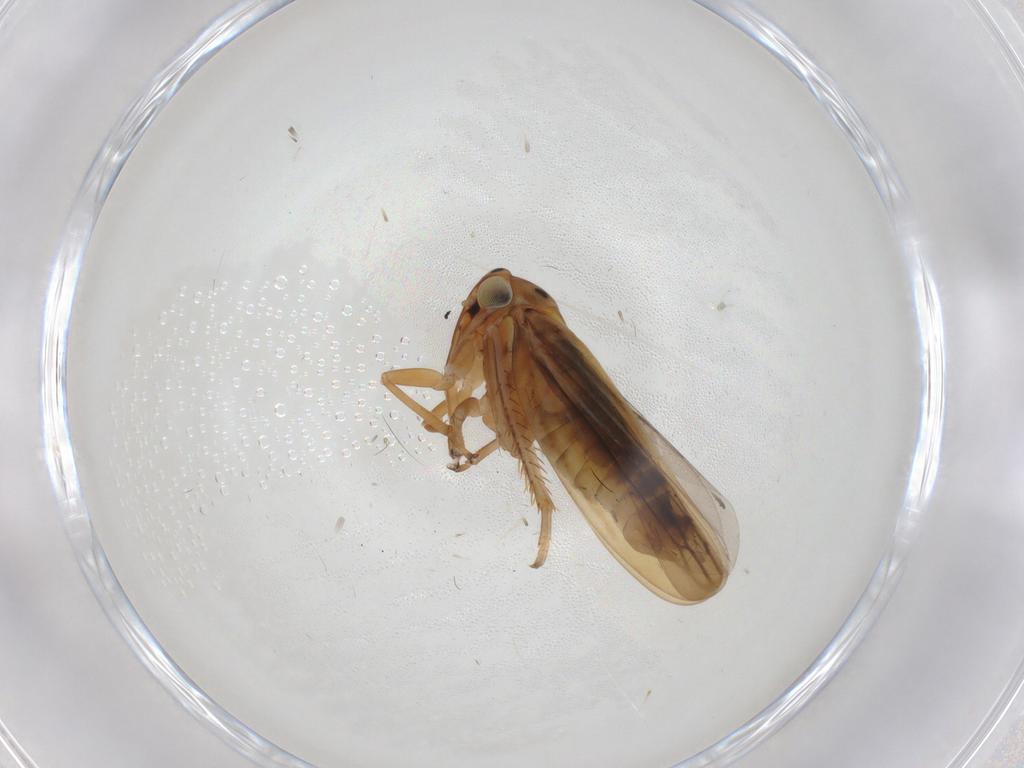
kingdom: Animalia
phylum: Arthropoda
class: Insecta
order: Hemiptera
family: Cicadellidae
